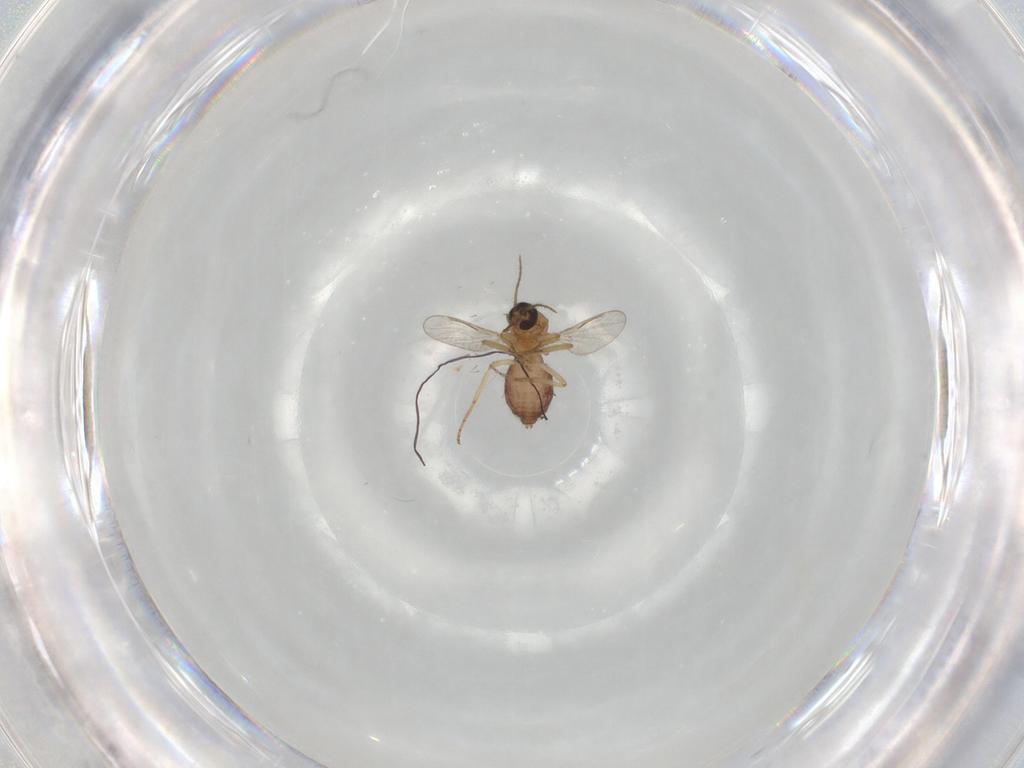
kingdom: Animalia
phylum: Arthropoda
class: Insecta
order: Diptera
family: Ceratopogonidae
